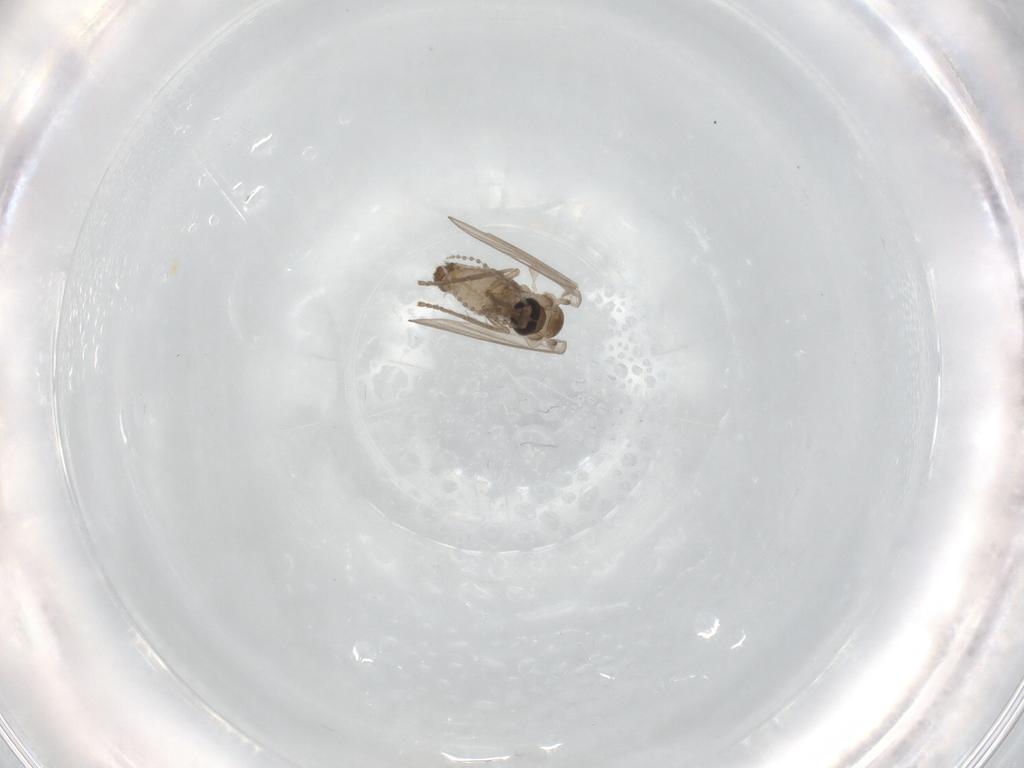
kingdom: Animalia
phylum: Arthropoda
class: Insecta
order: Diptera
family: Psychodidae
